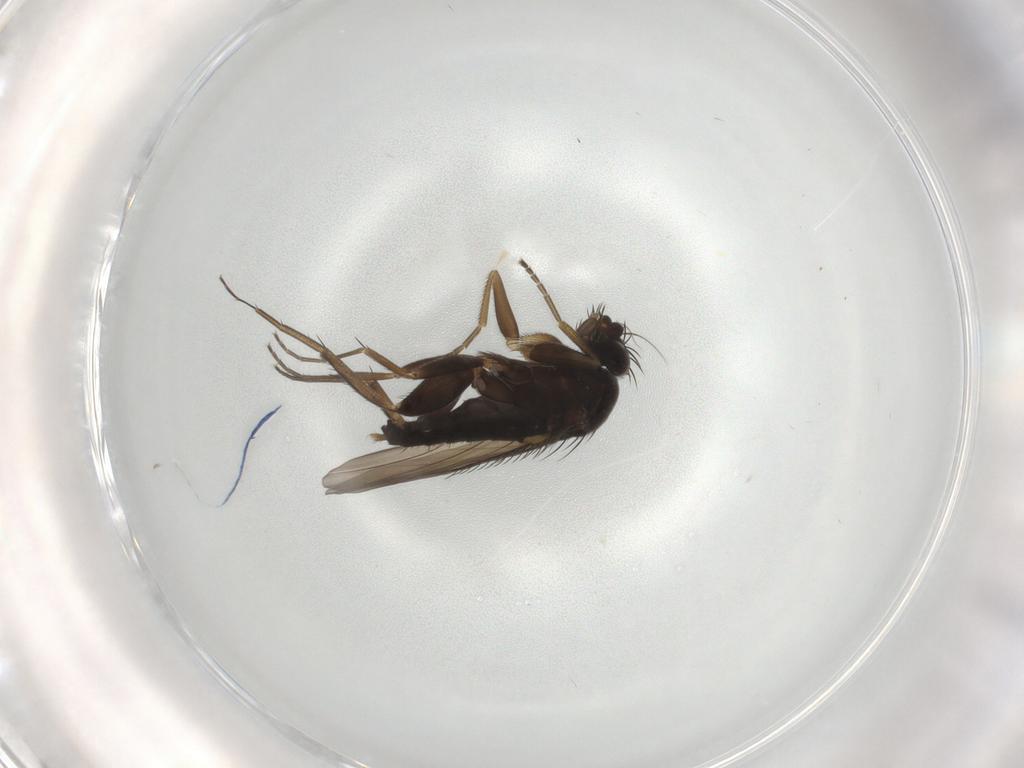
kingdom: Animalia
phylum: Arthropoda
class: Insecta
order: Diptera
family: Phoridae
